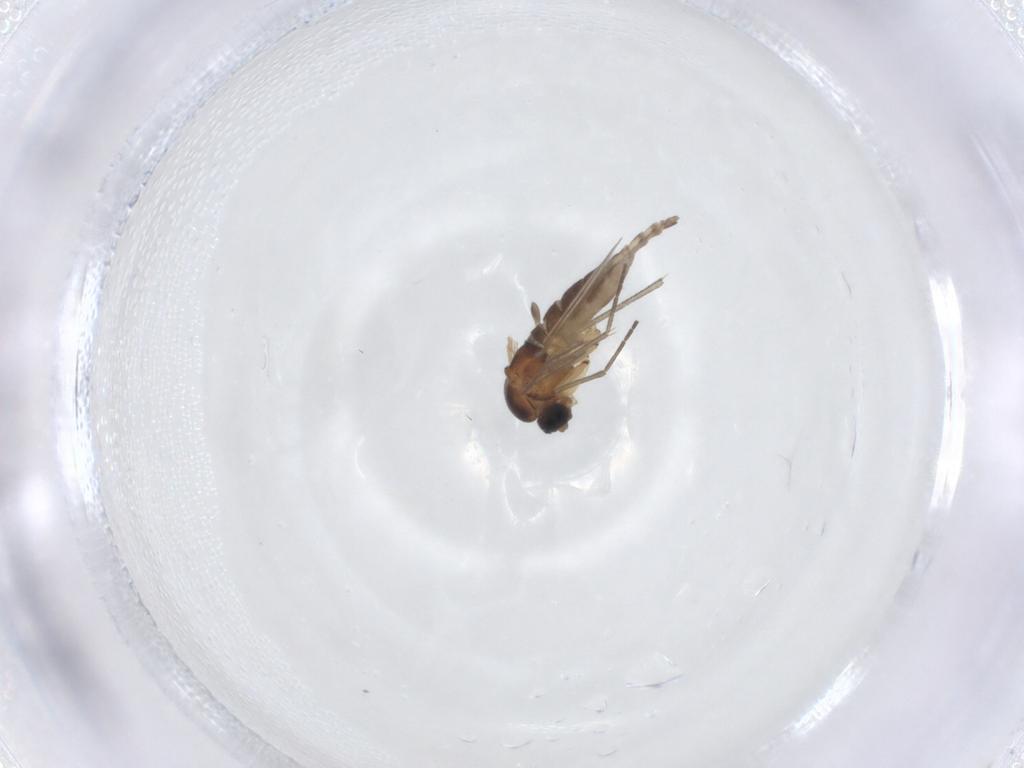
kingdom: Animalia
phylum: Arthropoda
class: Insecta
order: Diptera
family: Sciaridae
